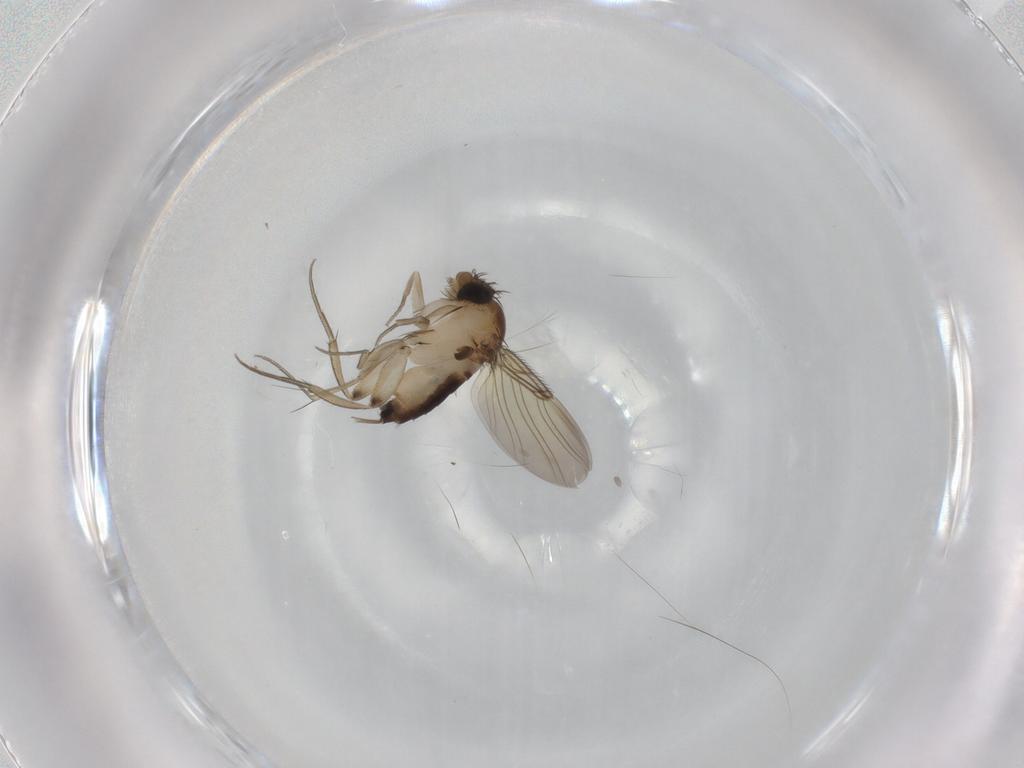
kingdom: Animalia
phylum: Arthropoda
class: Insecta
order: Diptera
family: Phoridae
